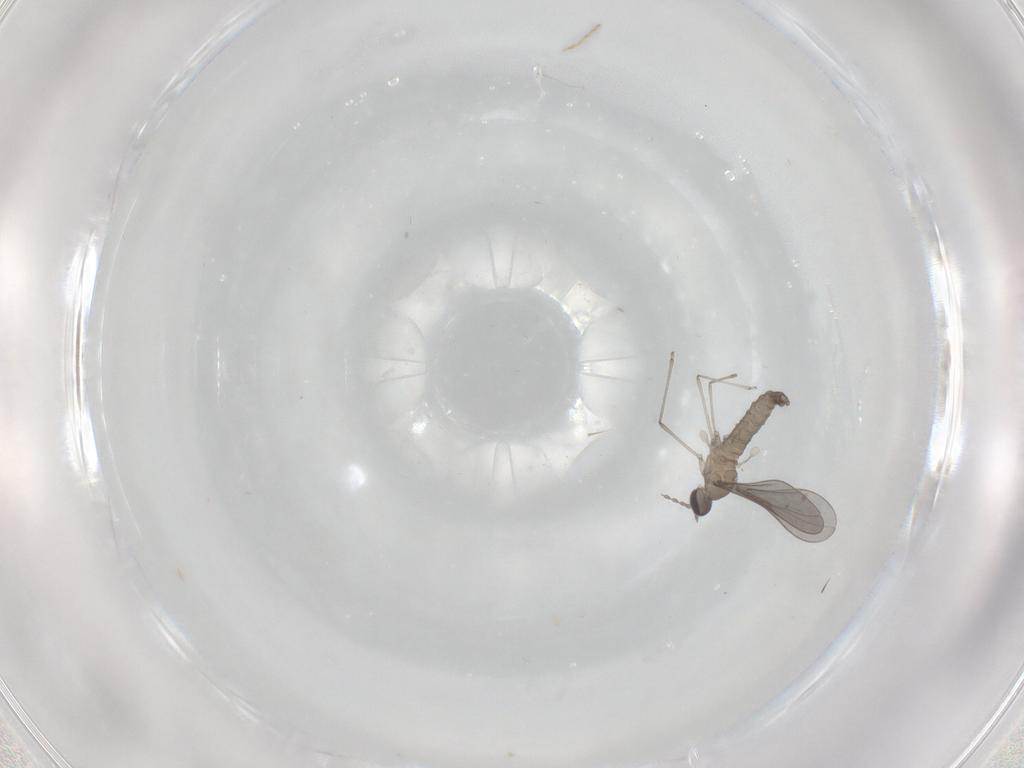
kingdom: Animalia
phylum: Arthropoda
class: Insecta
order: Diptera
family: Cecidomyiidae
